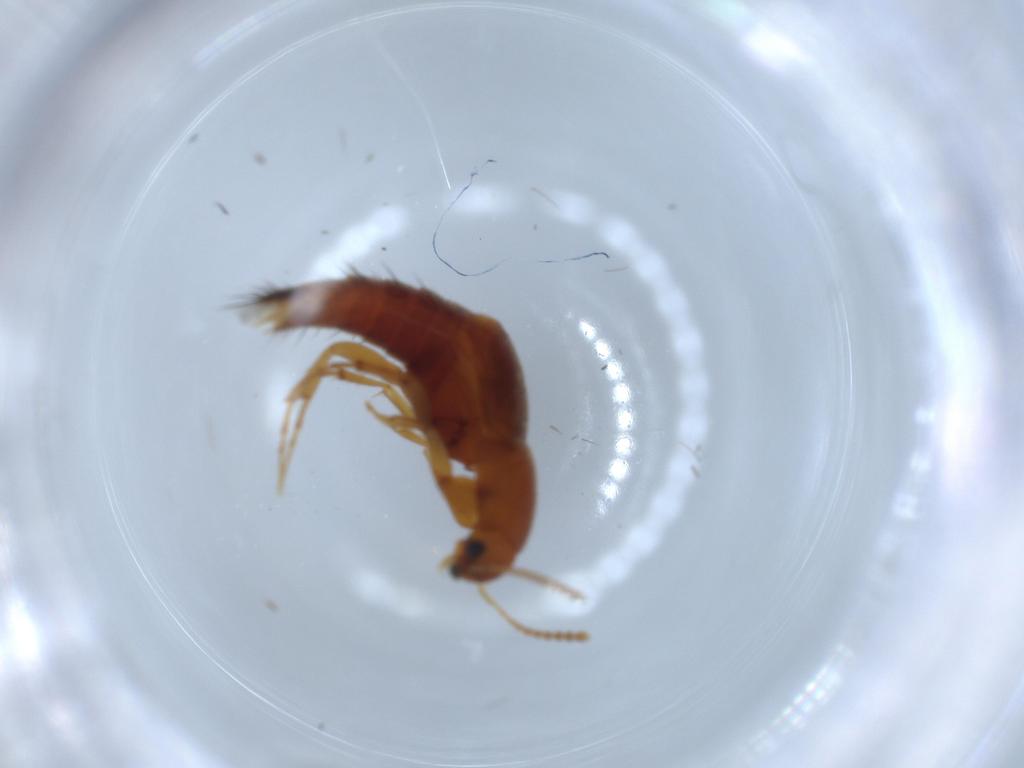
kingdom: Animalia
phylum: Arthropoda
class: Insecta
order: Coleoptera
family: Staphylinidae
